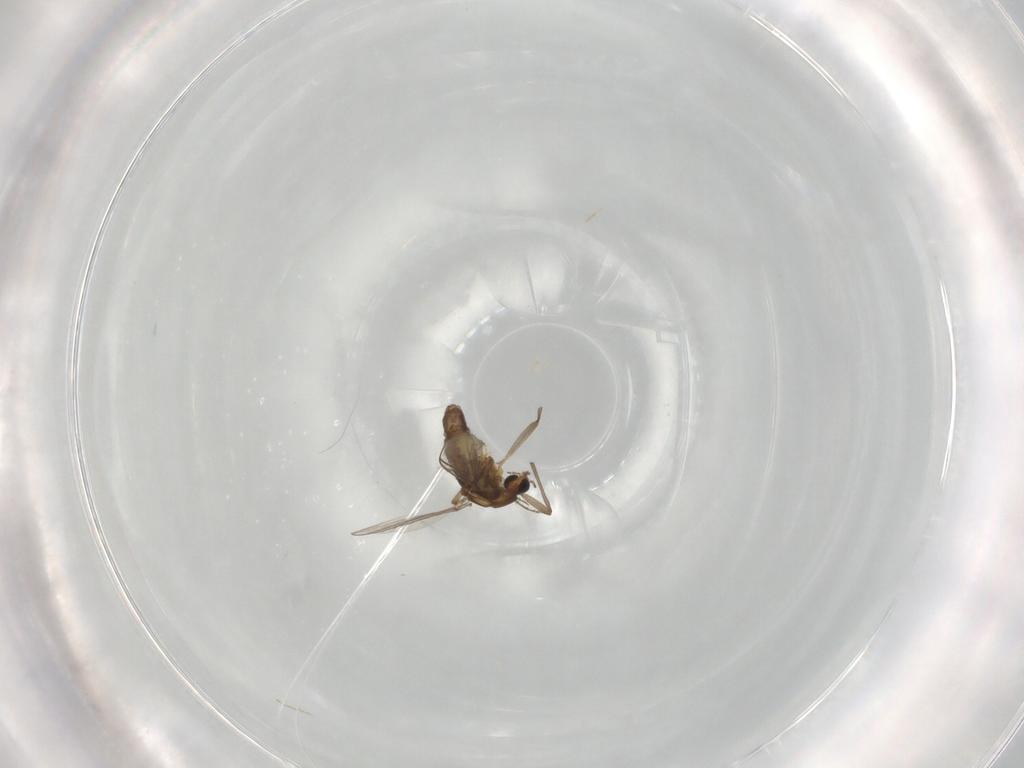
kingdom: Animalia
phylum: Arthropoda
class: Insecta
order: Diptera
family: Chironomidae
